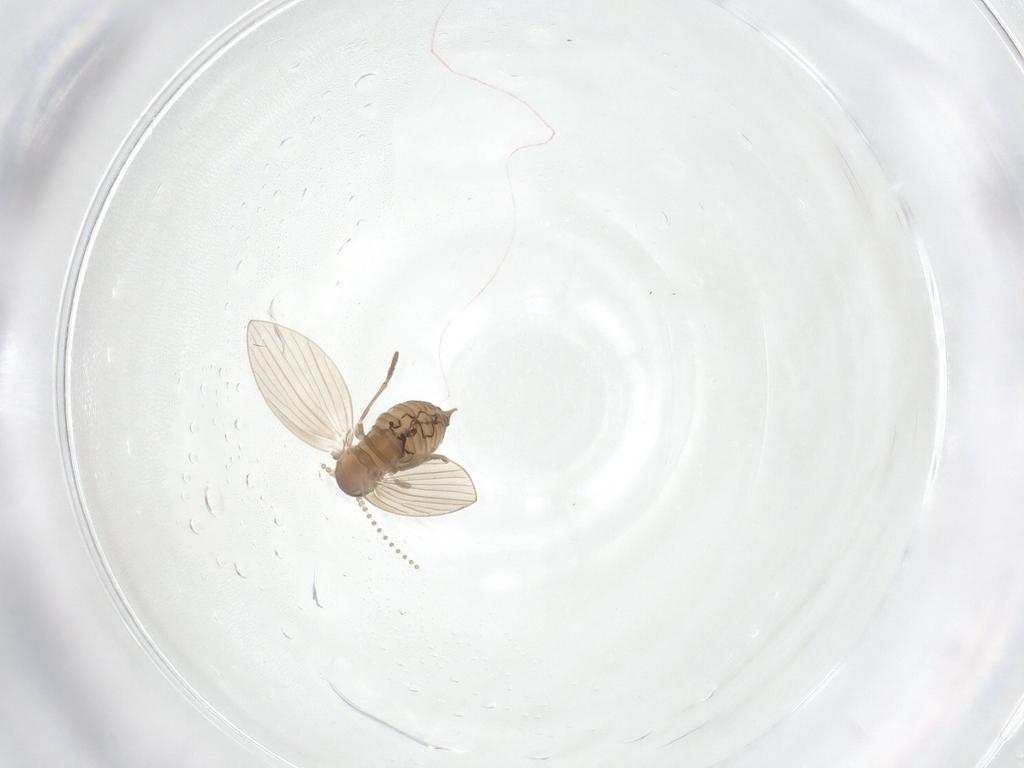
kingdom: Animalia
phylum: Arthropoda
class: Insecta
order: Diptera
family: Psychodidae
